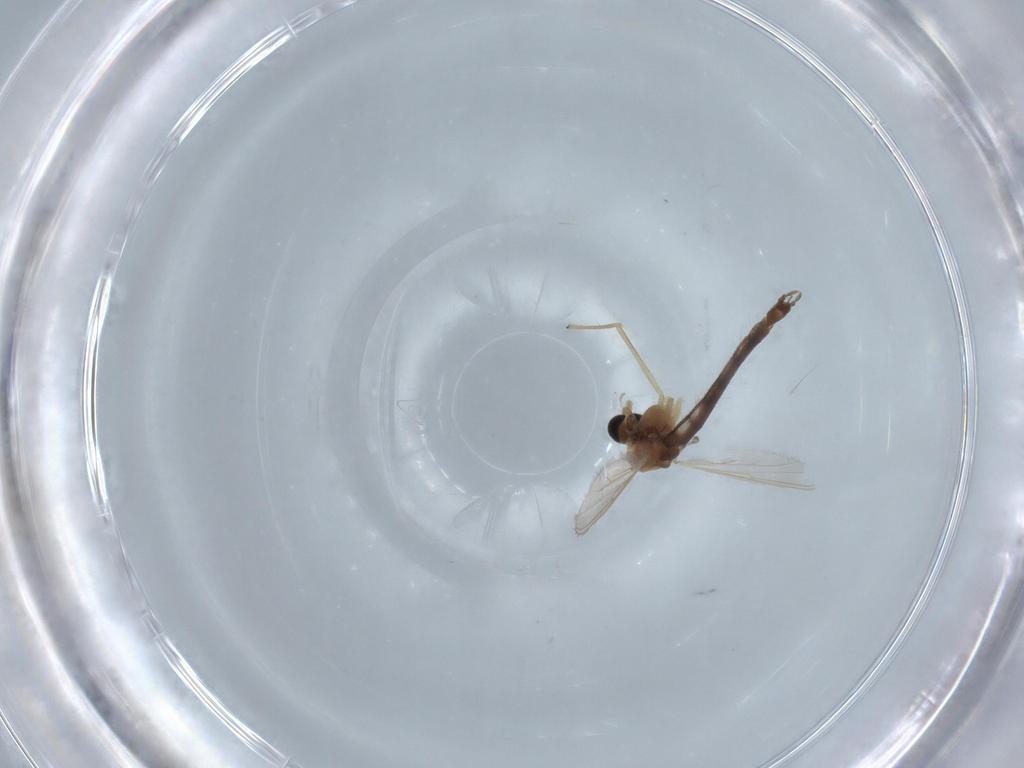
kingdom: Animalia
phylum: Arthropoda
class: Insecta
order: Diptera
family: Chironomidae
